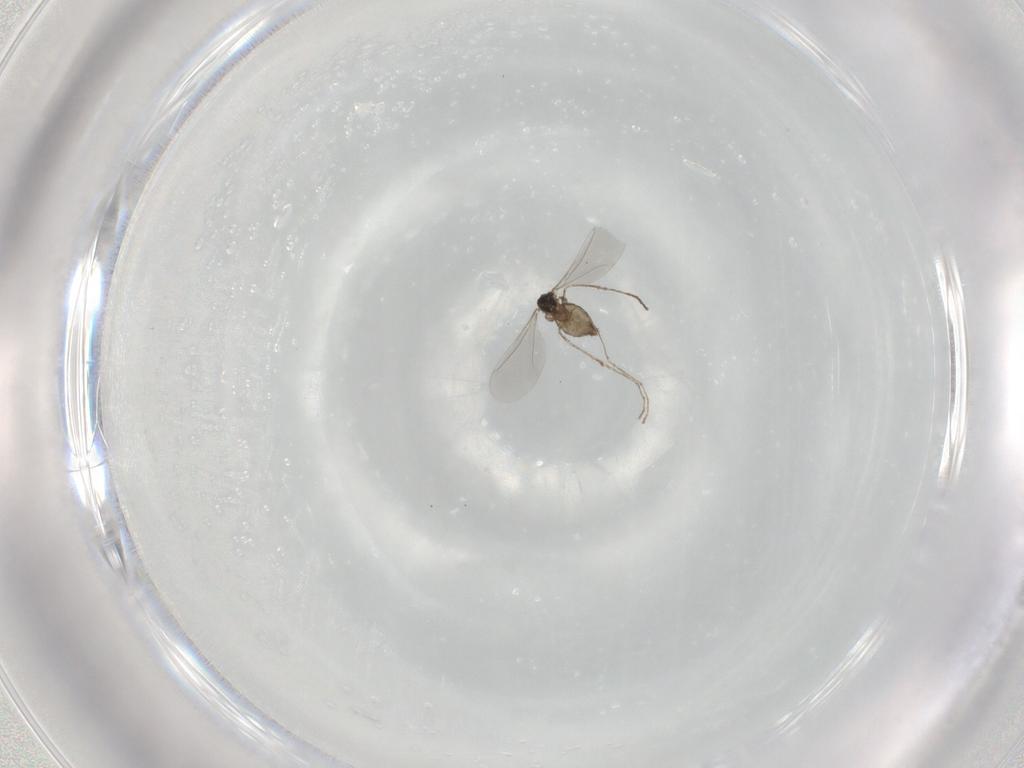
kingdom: Animalia
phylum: Arthropoda
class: Insecta
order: Diptera
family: Cecidomyiidae
